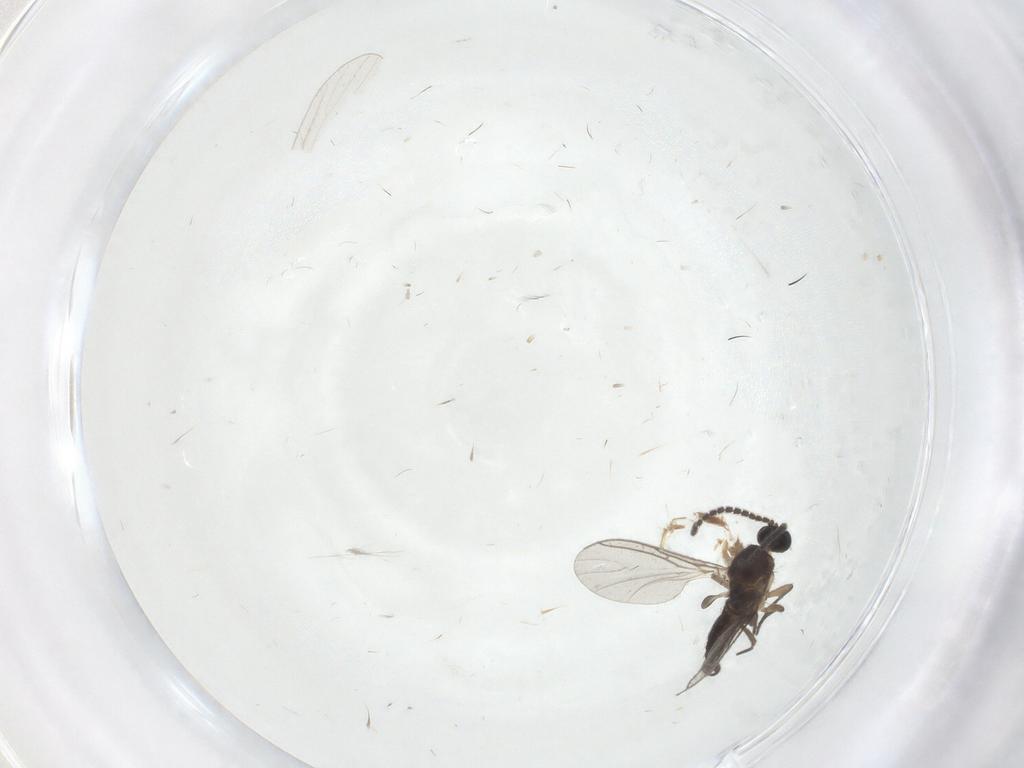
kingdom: Animalia
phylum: Arthropoda
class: Insecta
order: Diptera
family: Sciaridae
